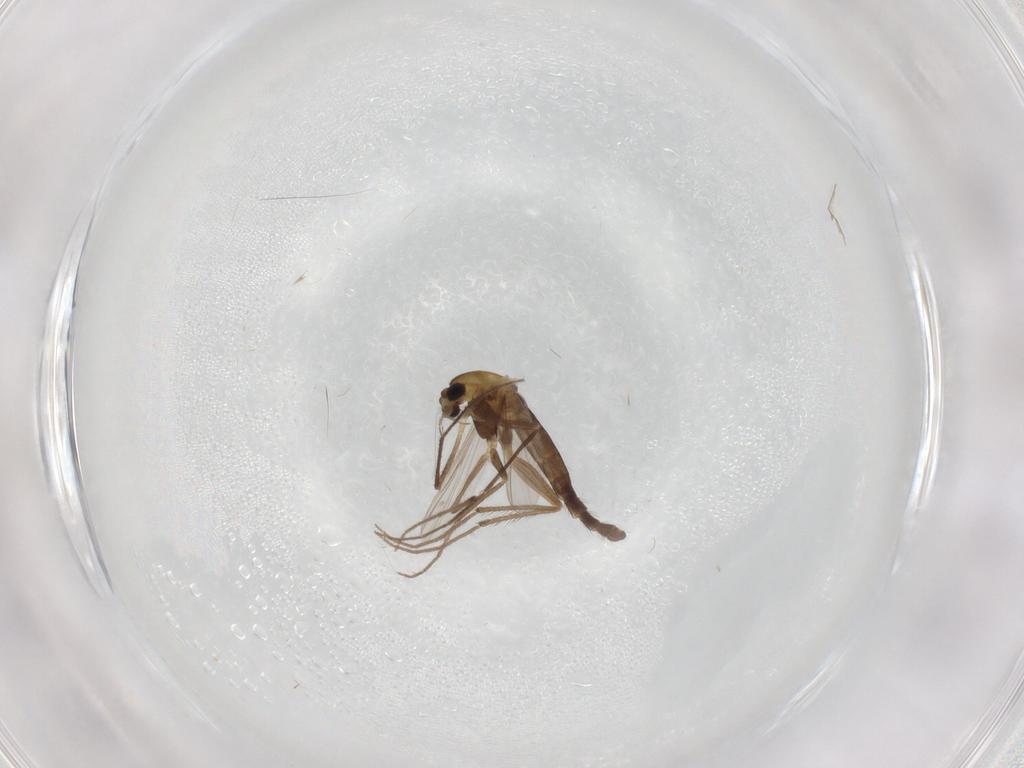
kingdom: Animalia
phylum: Arthropoda
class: Insecta
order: Diptera
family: Chironomidae
